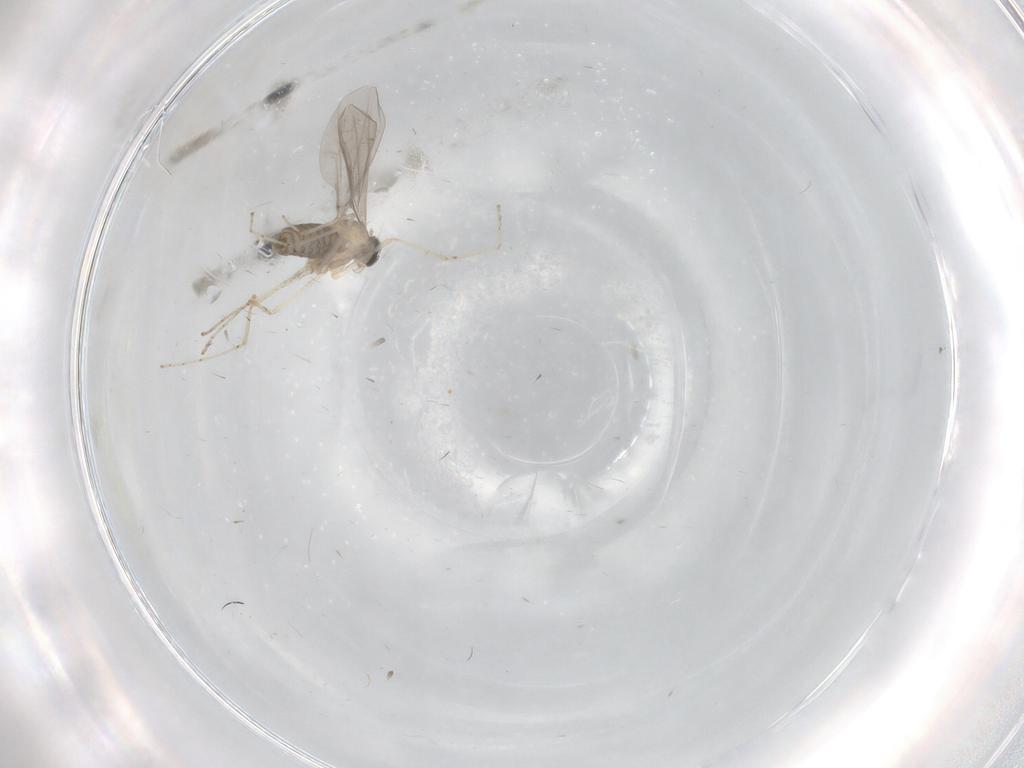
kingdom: Animalia
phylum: Arthropoda
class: Insecta
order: Diptera
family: Cecidomyiidae
